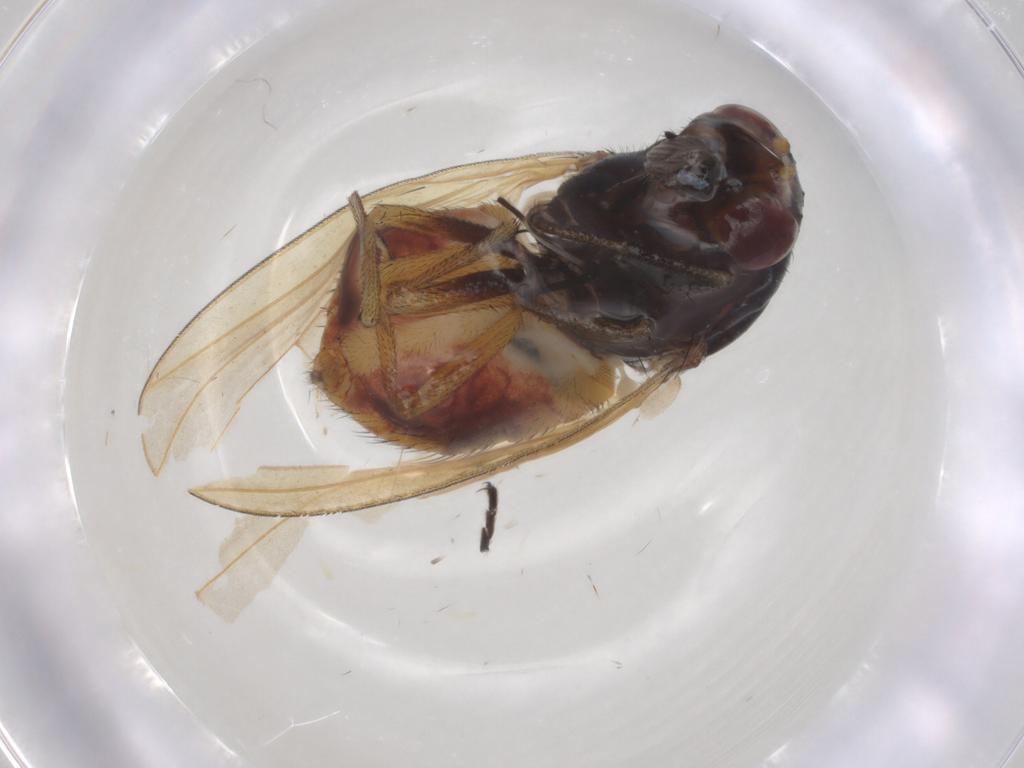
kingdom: Animalia
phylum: Arthropoda
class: Insecta
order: Diptera
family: Chironomidae
